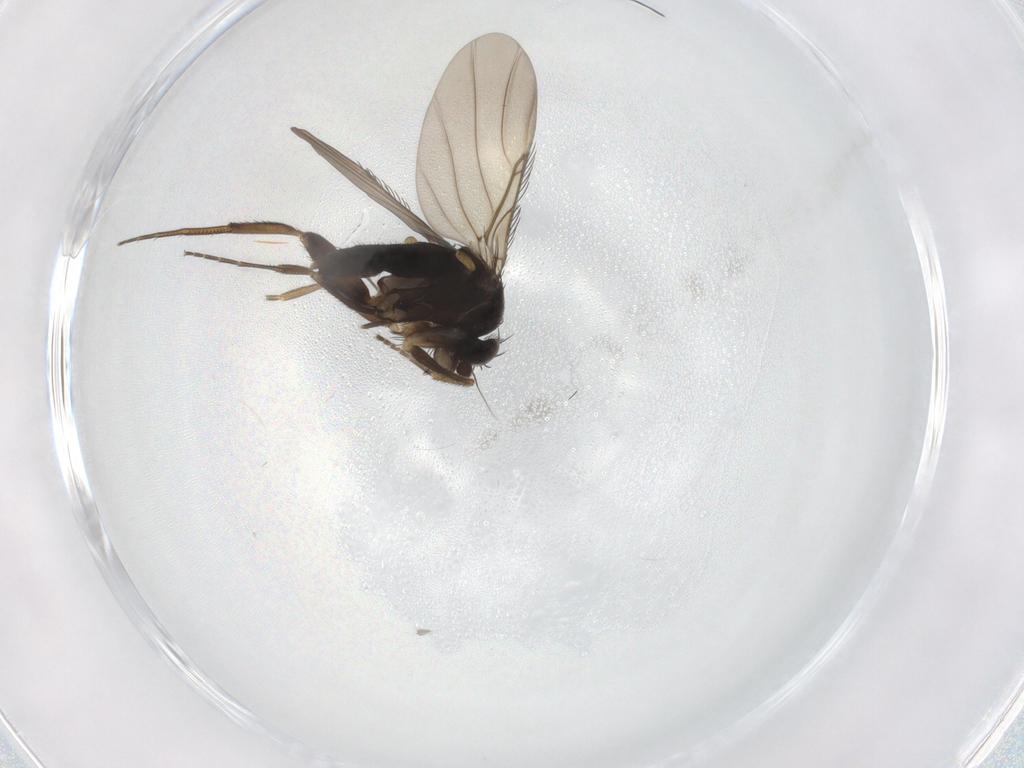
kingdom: Animalia
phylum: Arthropoda
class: Insecta
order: Diptera
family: Phoridae
